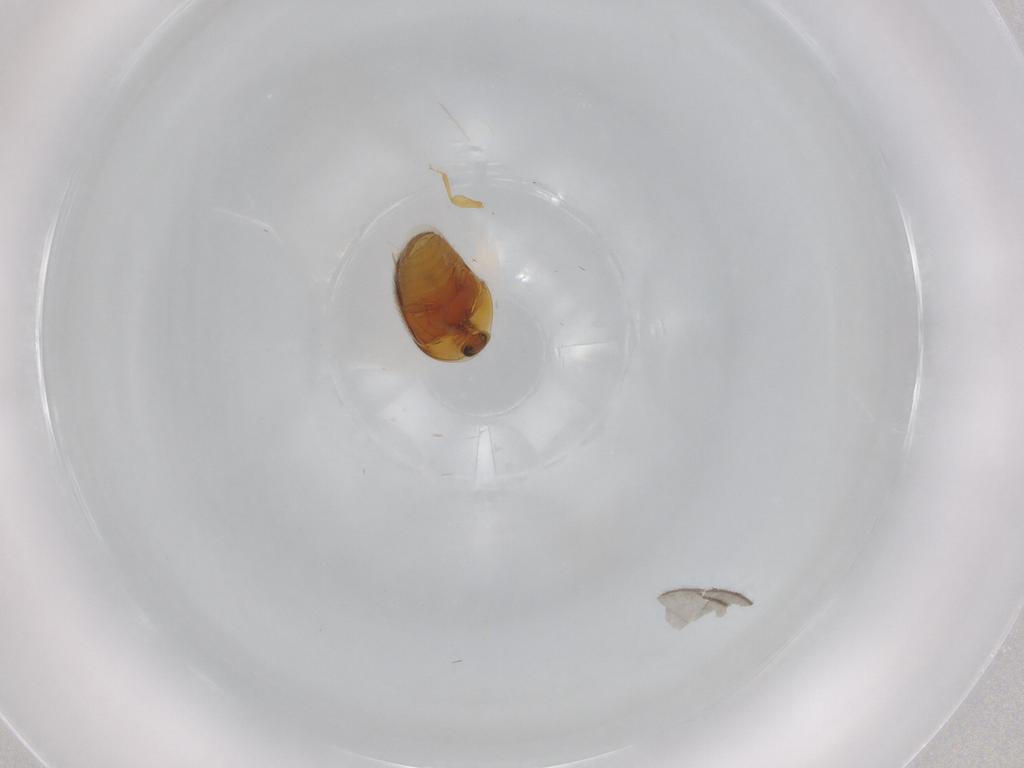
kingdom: Animalia
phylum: Arthropoda
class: Insecta
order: Coleoptera
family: Corylophidae
